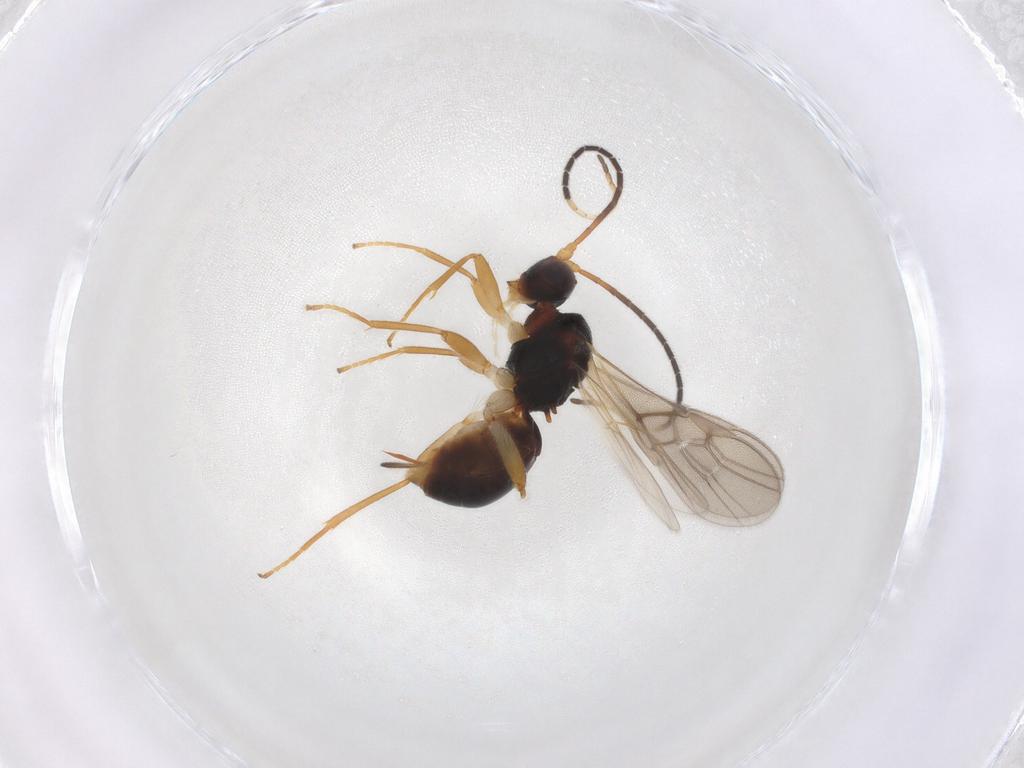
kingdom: Animalia
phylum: Arthropoda
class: Insecta
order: Hymenoptera
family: Braconidae
